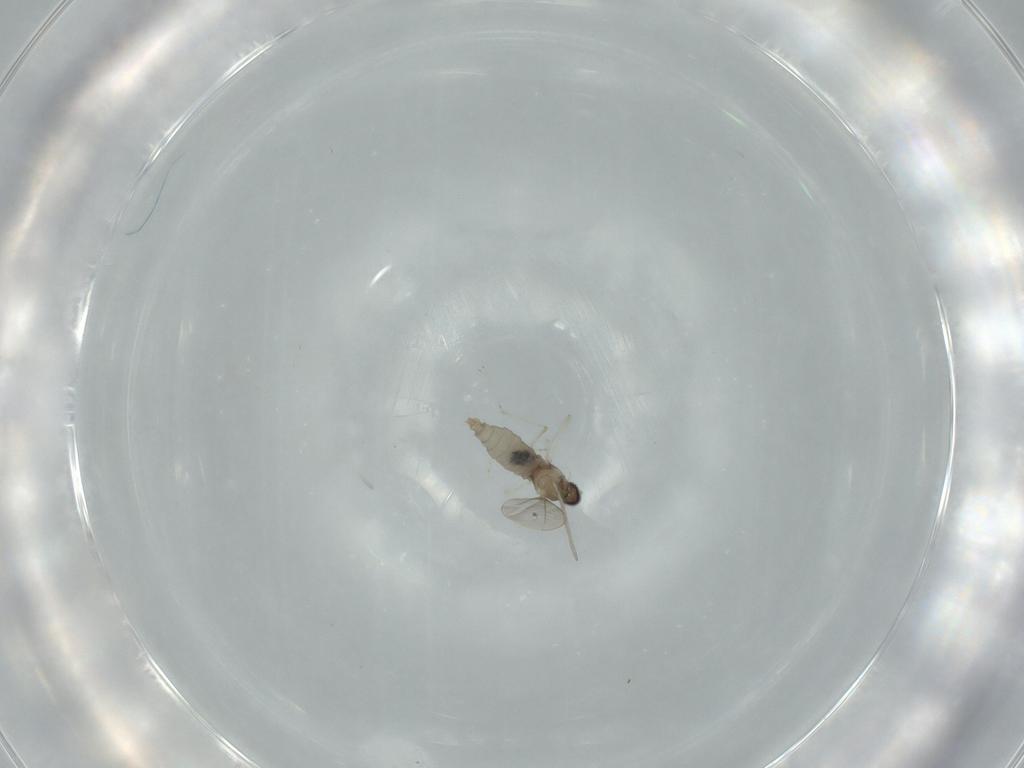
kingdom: Animalia
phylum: Arthropoda
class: Insecta
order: Diptera
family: Cecidomyiidae
